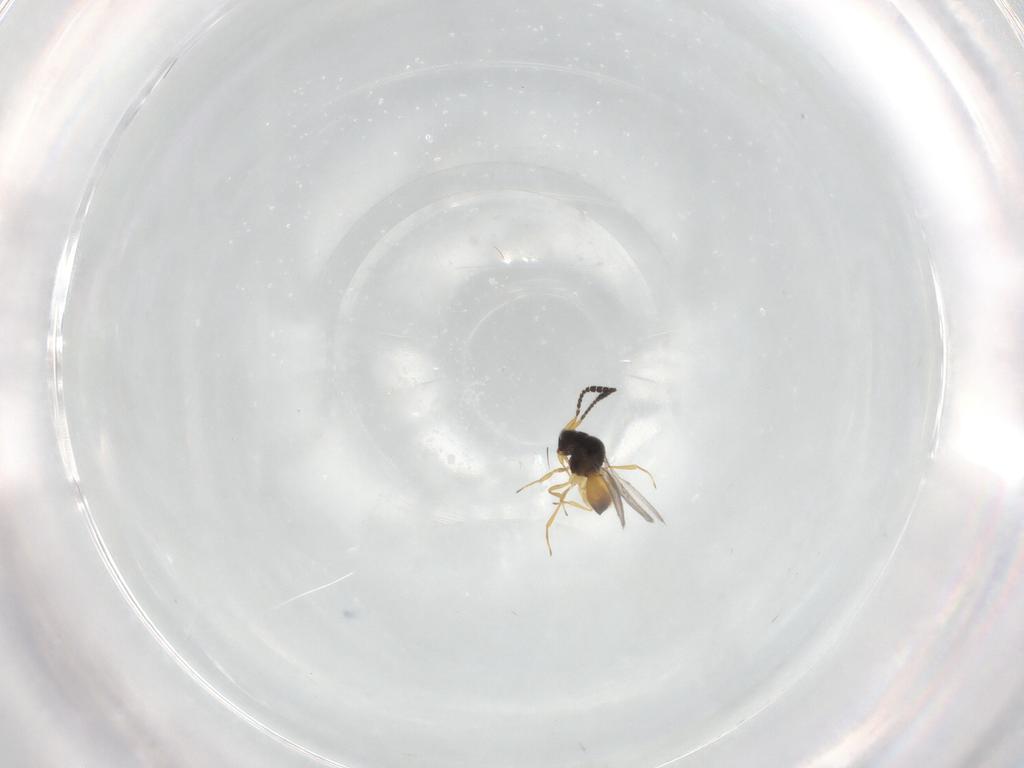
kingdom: Animalia
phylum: Arthropoda
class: Insecta
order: Hymenoptera
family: Scelionidae
